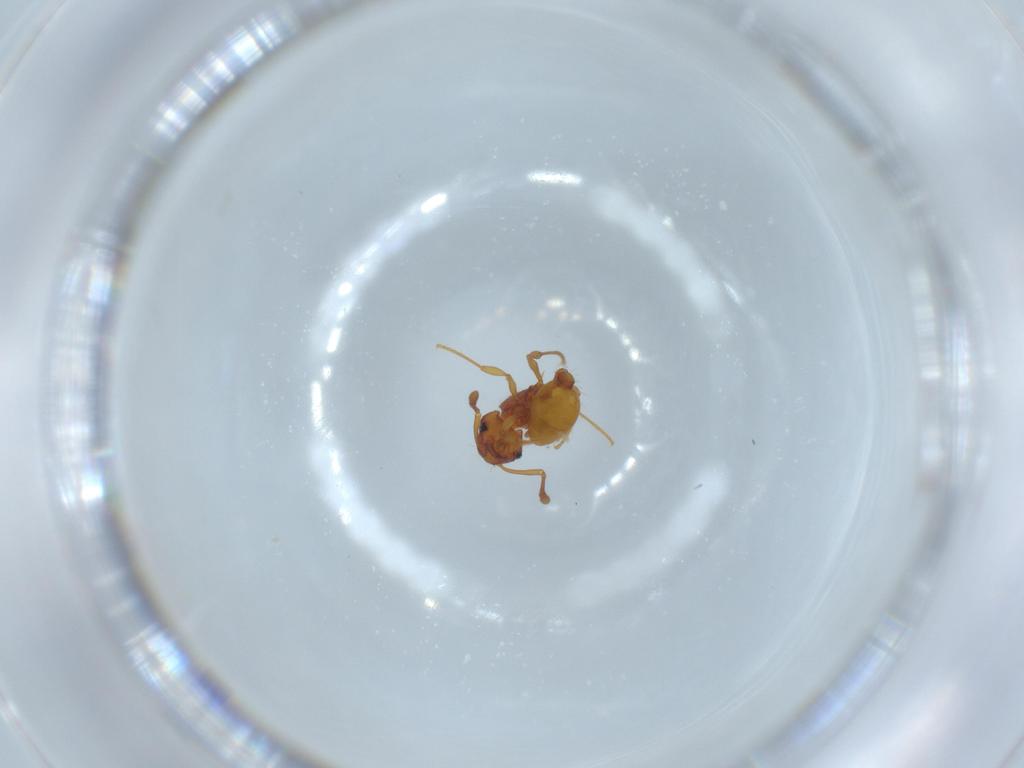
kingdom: Animalia
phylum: Arthropoda
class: Insecta
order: Hymenoptera
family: Formicidae
